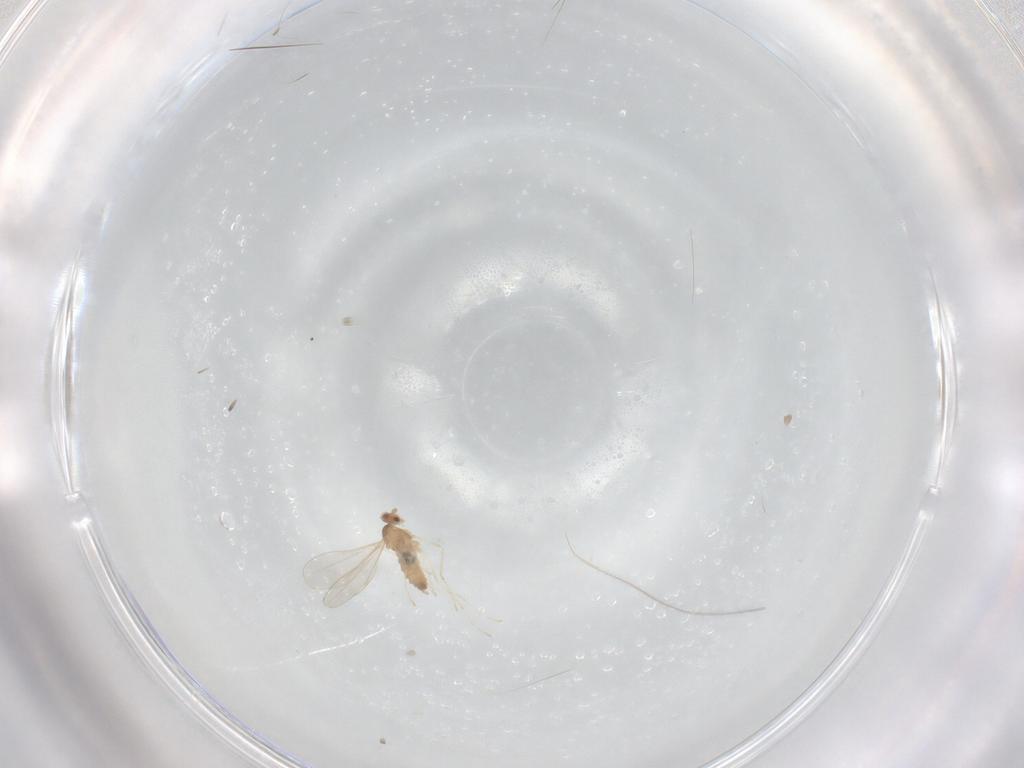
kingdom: Animalia
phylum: Arthropoda
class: Insecta
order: Diptera
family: Cecidomyiidae
